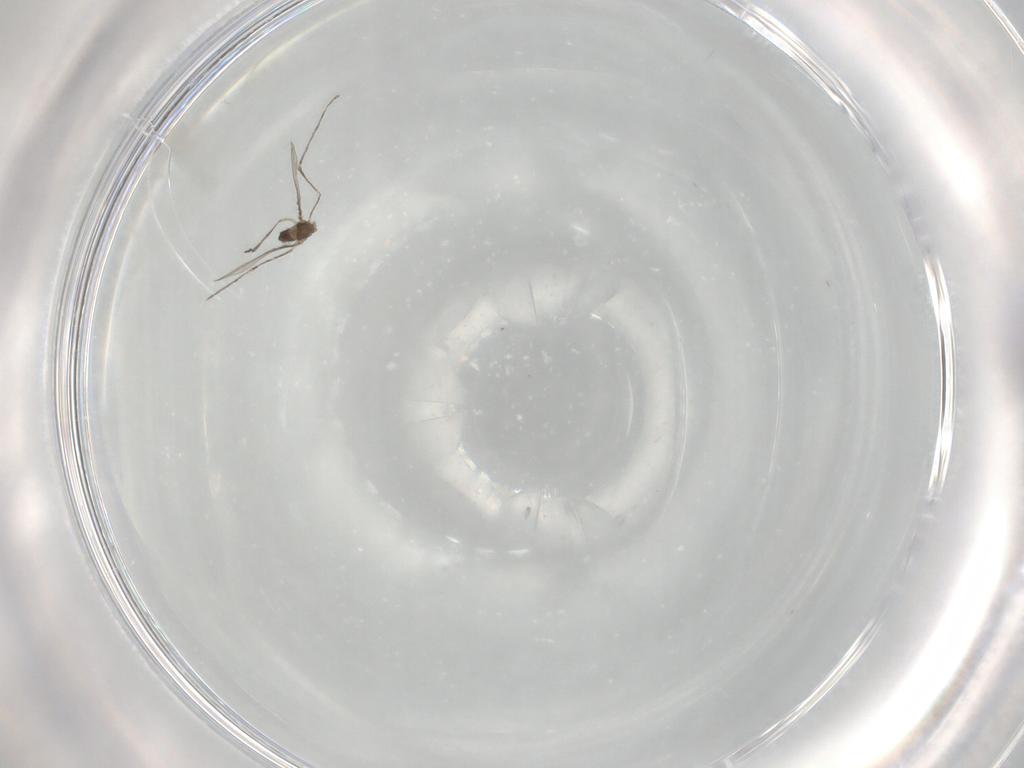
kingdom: Animalia
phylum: Arthropoda
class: Insecta
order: Diptera
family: Cecidomyiidae
